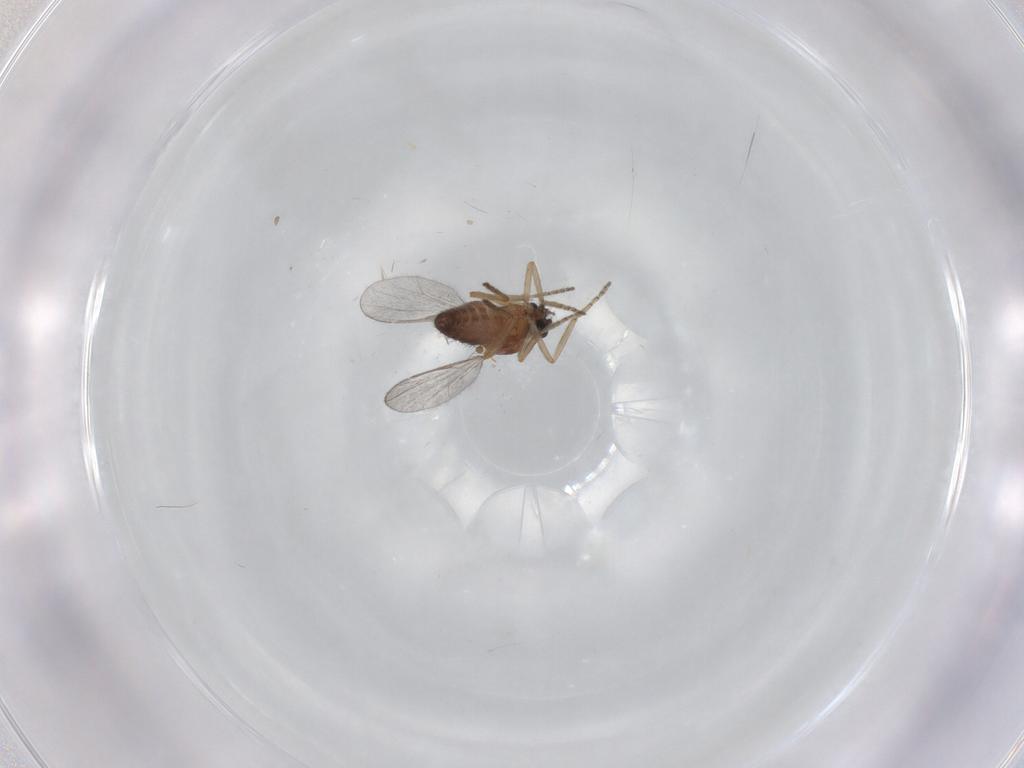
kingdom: Animalia
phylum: Arthropoda
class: Insecta
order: Diptera
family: Ceratopogonidae
